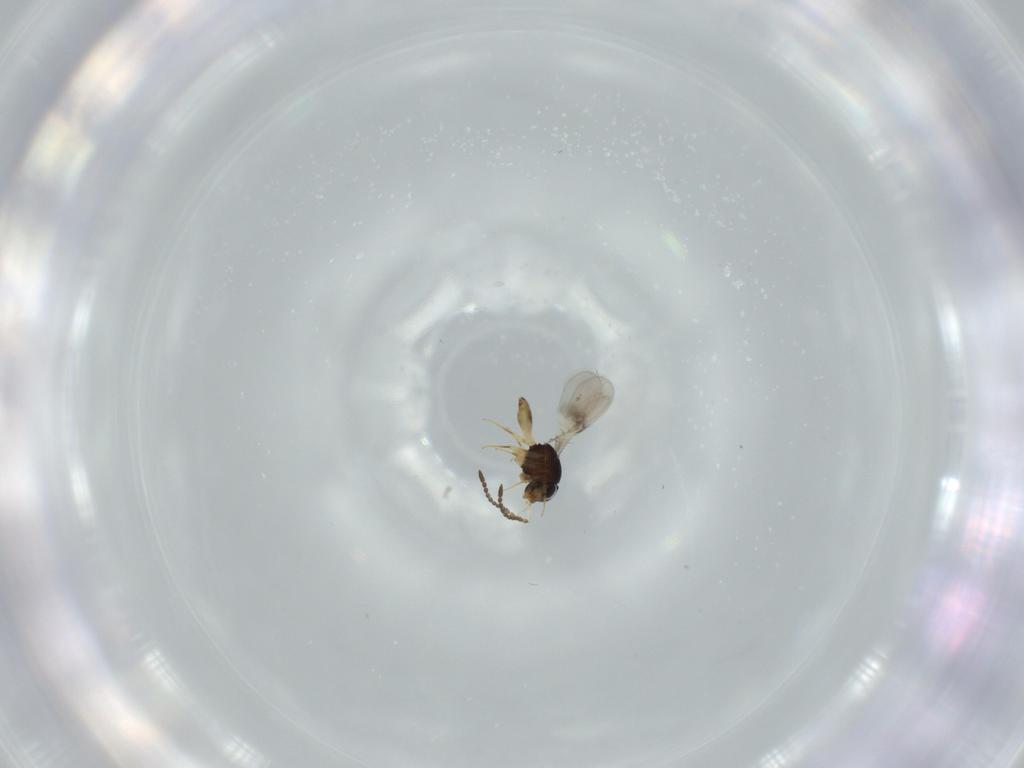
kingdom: Animalia
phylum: Arthropoda
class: Insecta
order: Hymenoptera
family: Scelionidae
